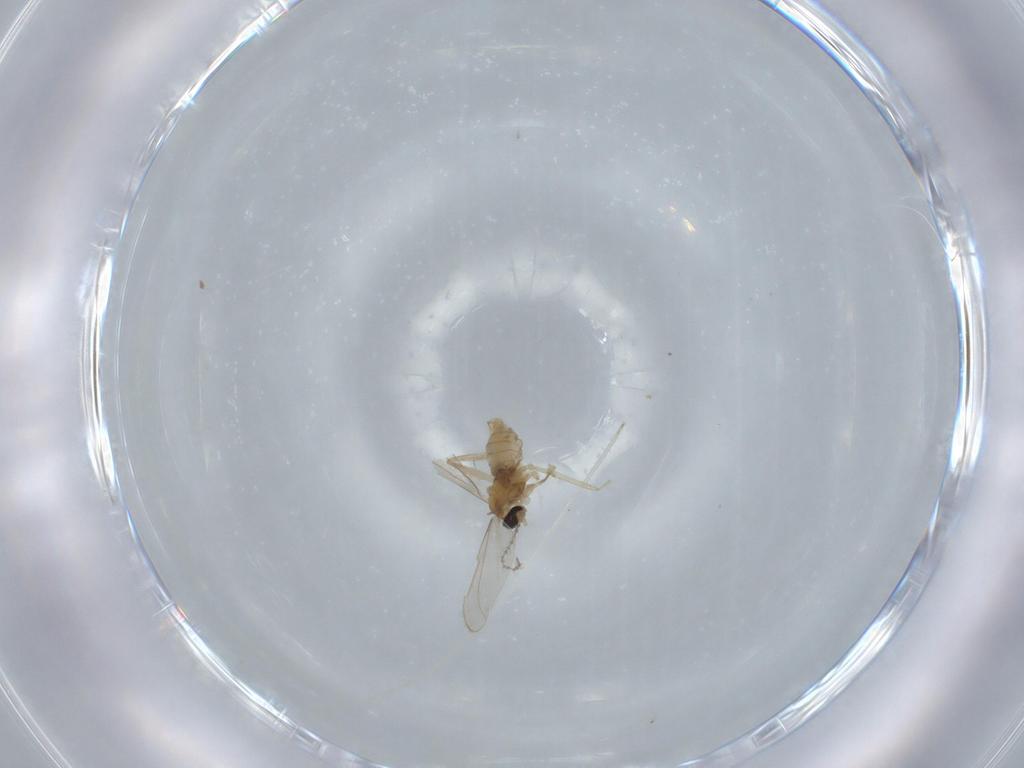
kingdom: Animalia
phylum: Arthropoda
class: Insecta
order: Diptera
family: Cecidomyiidae
